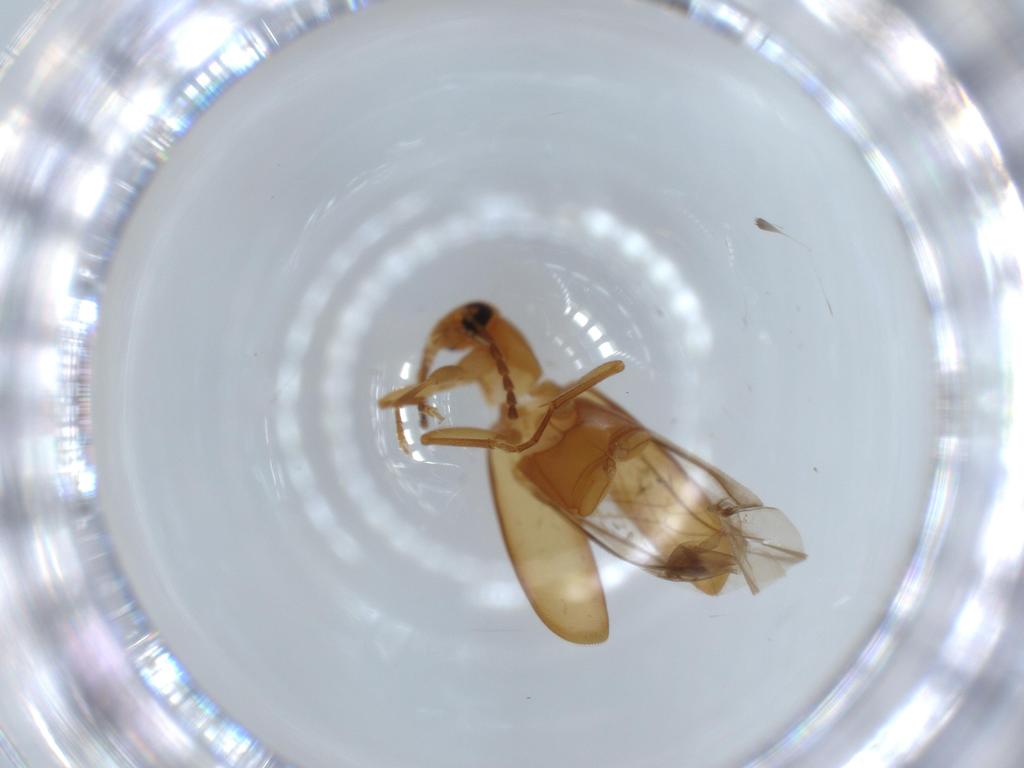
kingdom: Animalia
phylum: Arthropoda
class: Insecta
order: Coleoptera
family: Scraptiidae
